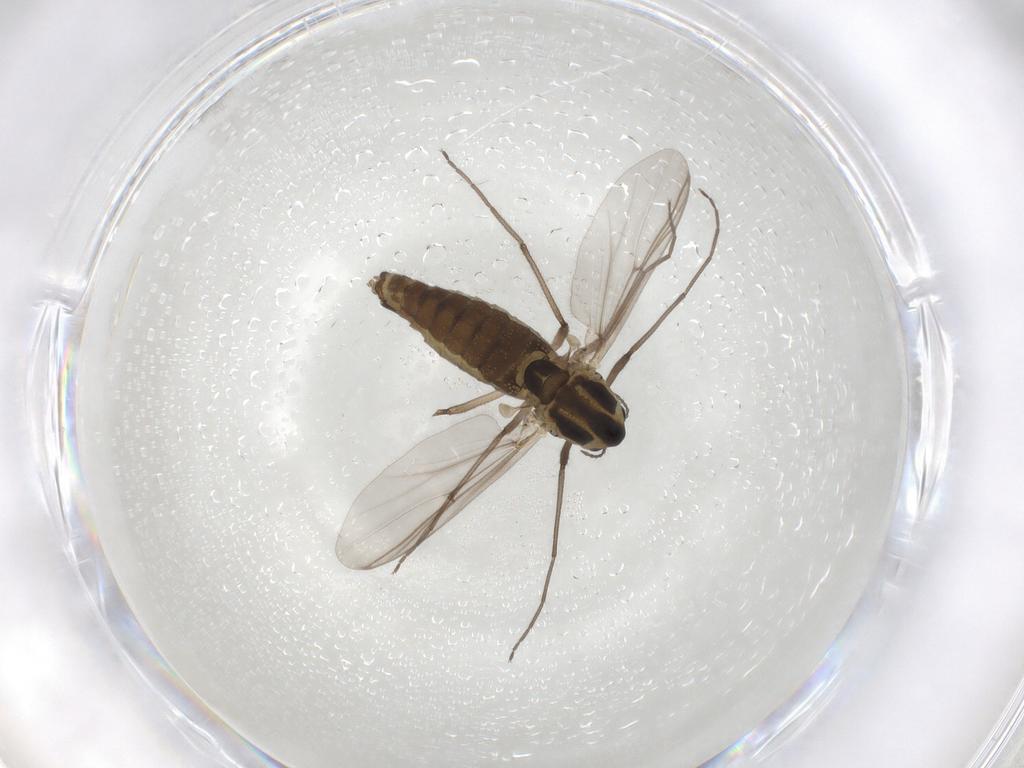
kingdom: Animalia
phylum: Arthropoda
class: Insecta
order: Diptera
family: Chironomidae
